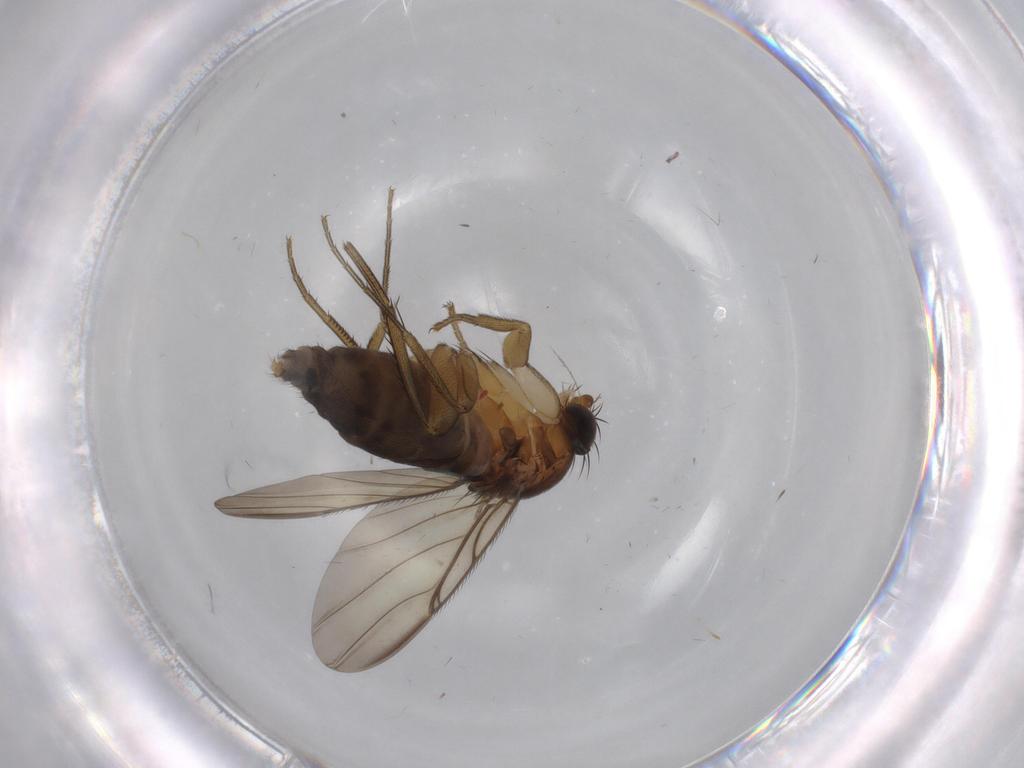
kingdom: Animalia
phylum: Arthropoda
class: Insecta
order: Diptera
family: Phoridae
